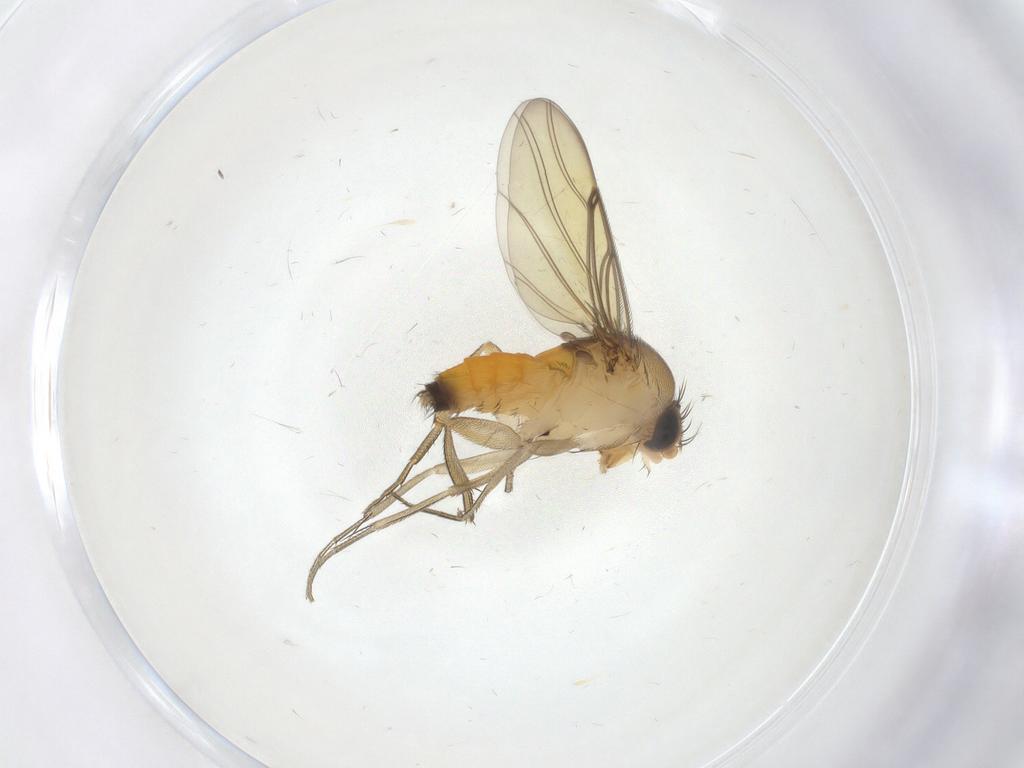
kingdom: Animalia
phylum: Arthropoda
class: Insecta
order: Diptera
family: Phoridae
